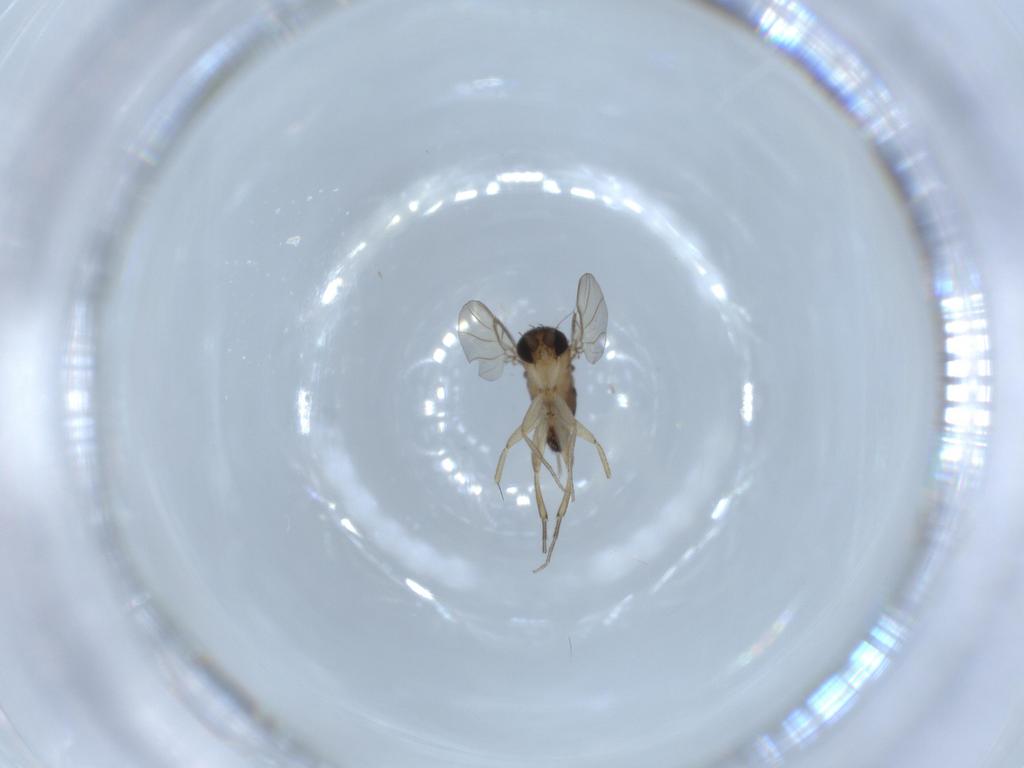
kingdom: Animalia
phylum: Arthropoda
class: Insecta
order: Diptera
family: Phoridae
